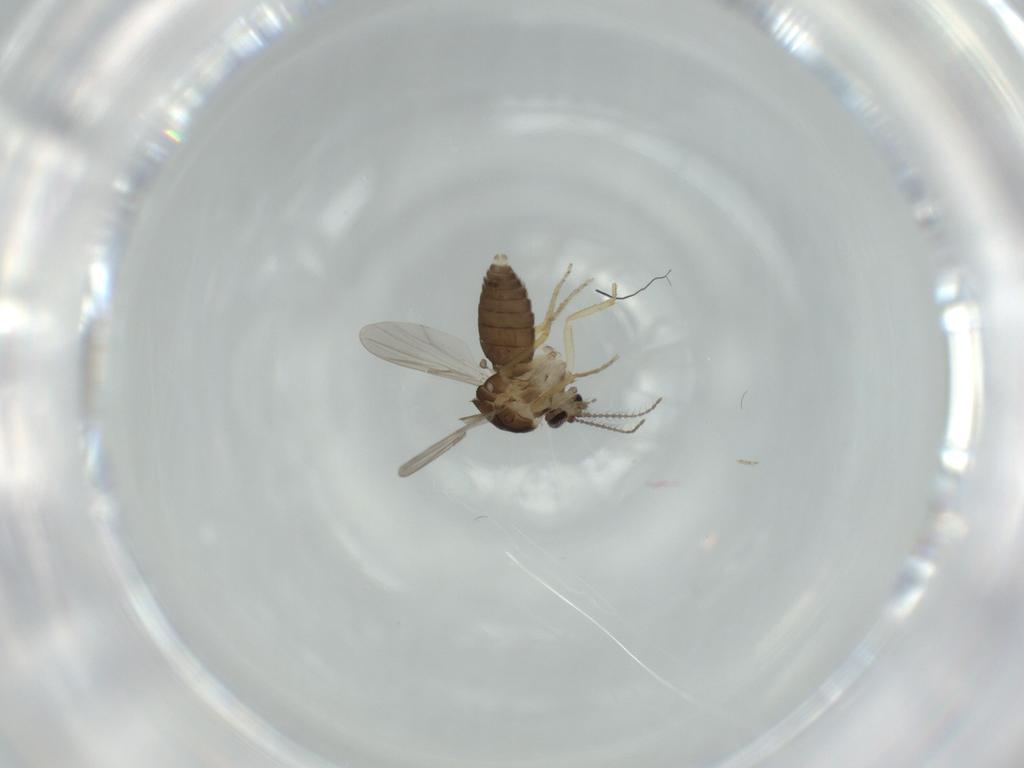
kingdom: Animalia
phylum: Arthropoda
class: Insecta
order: Diptera
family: Ceratopogonidae
